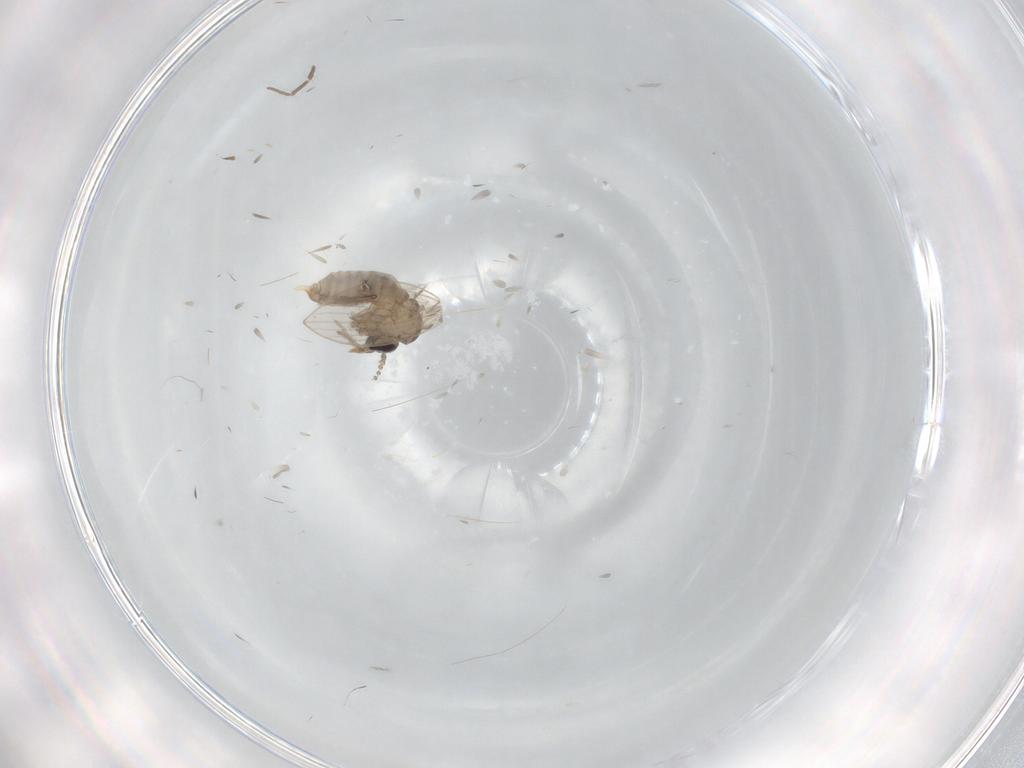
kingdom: Animalia
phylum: Arthropoda
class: Insecta
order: Diptera
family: Psychodidae
